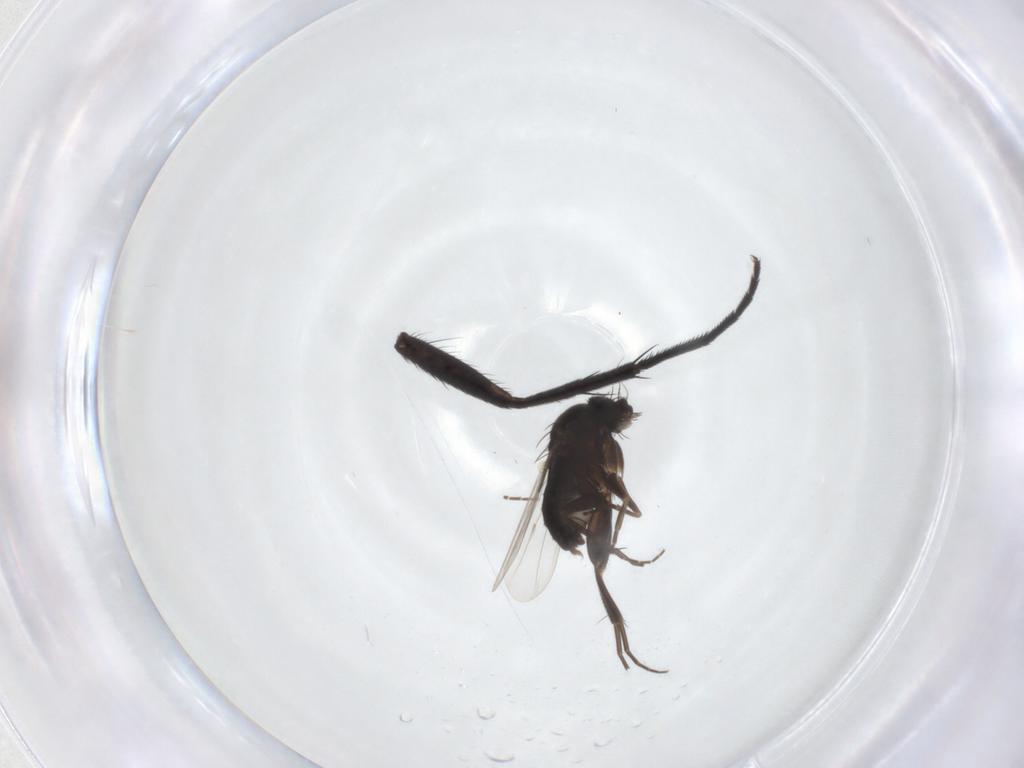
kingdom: Animalia
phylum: Arthropoda
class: Insecta
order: Diptera
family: Tachinidae
